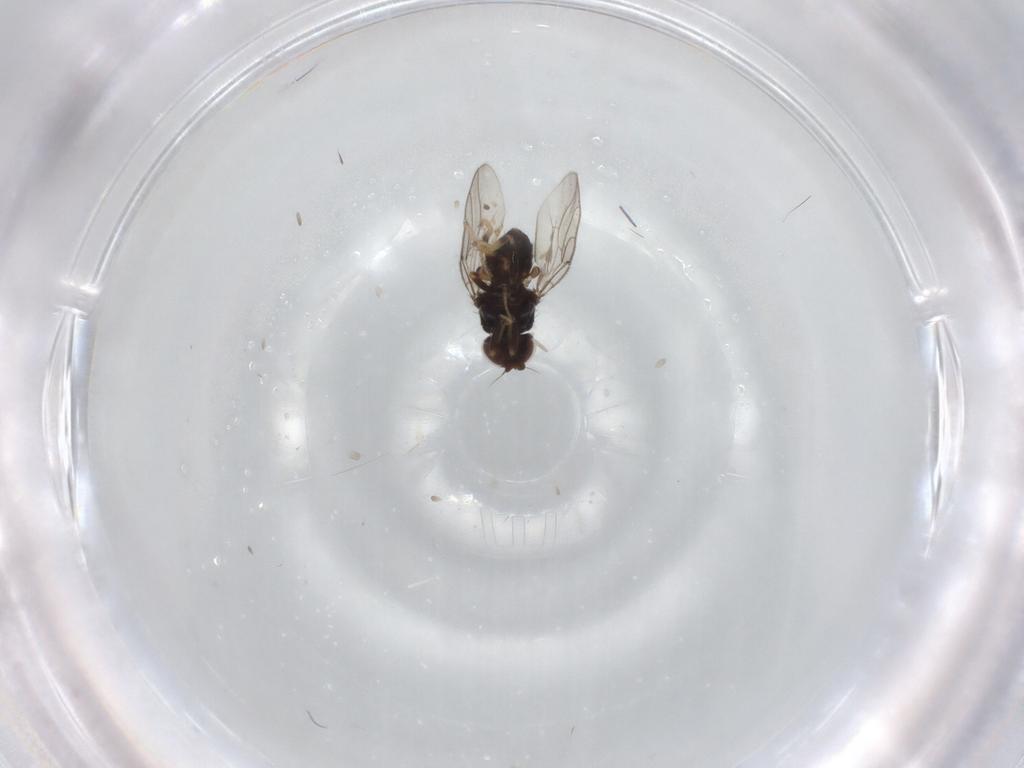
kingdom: Animalia
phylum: Arthropoda
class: Insecta
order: Diptera
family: Chloropidae
